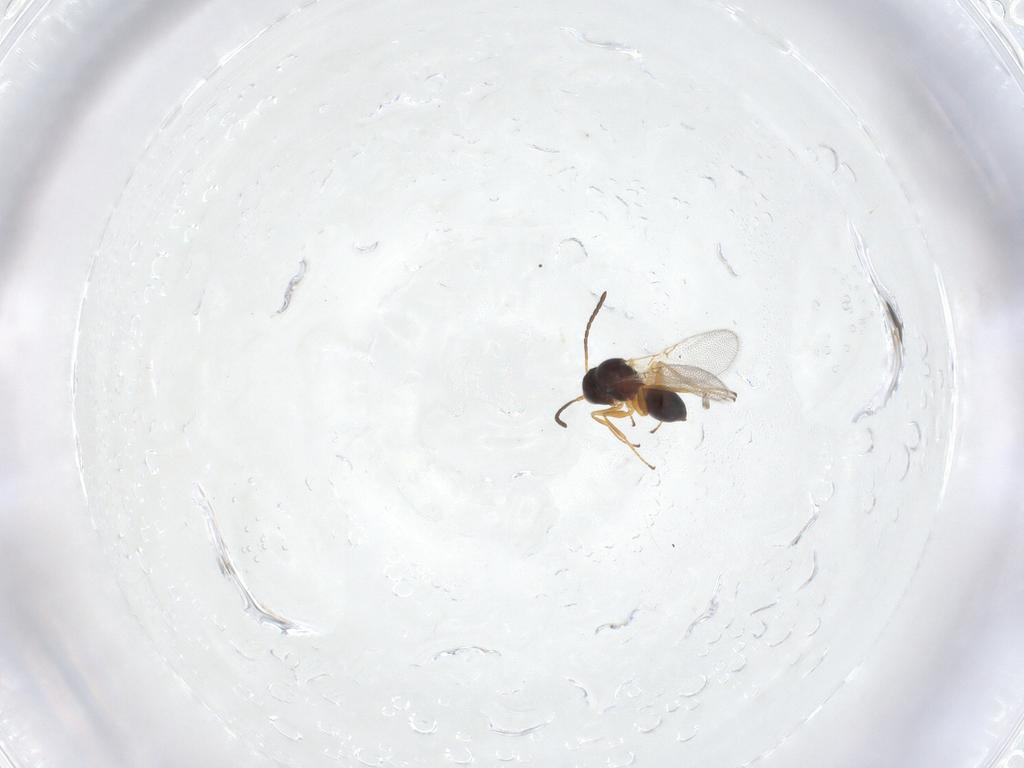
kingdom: Animalia
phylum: Arthropoda
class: Insecta
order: Hymenoptera
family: Figitidae
